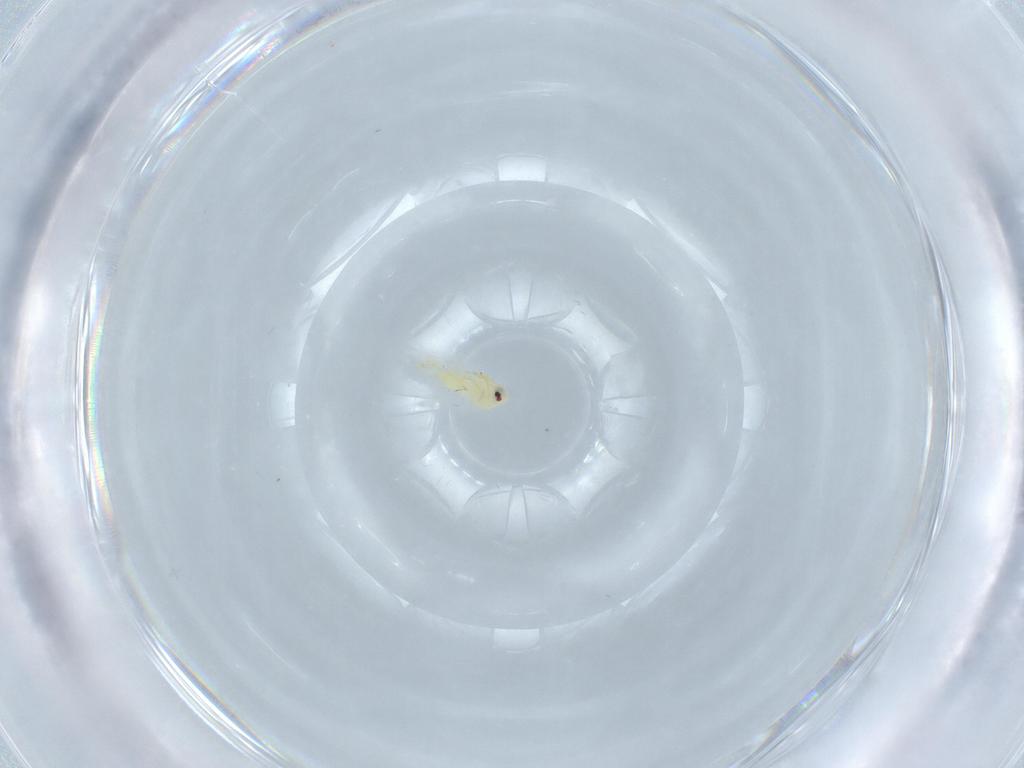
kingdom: Animalia
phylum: Arthropoda
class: Insecta
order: Hemiptera
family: Aleyrodidae
